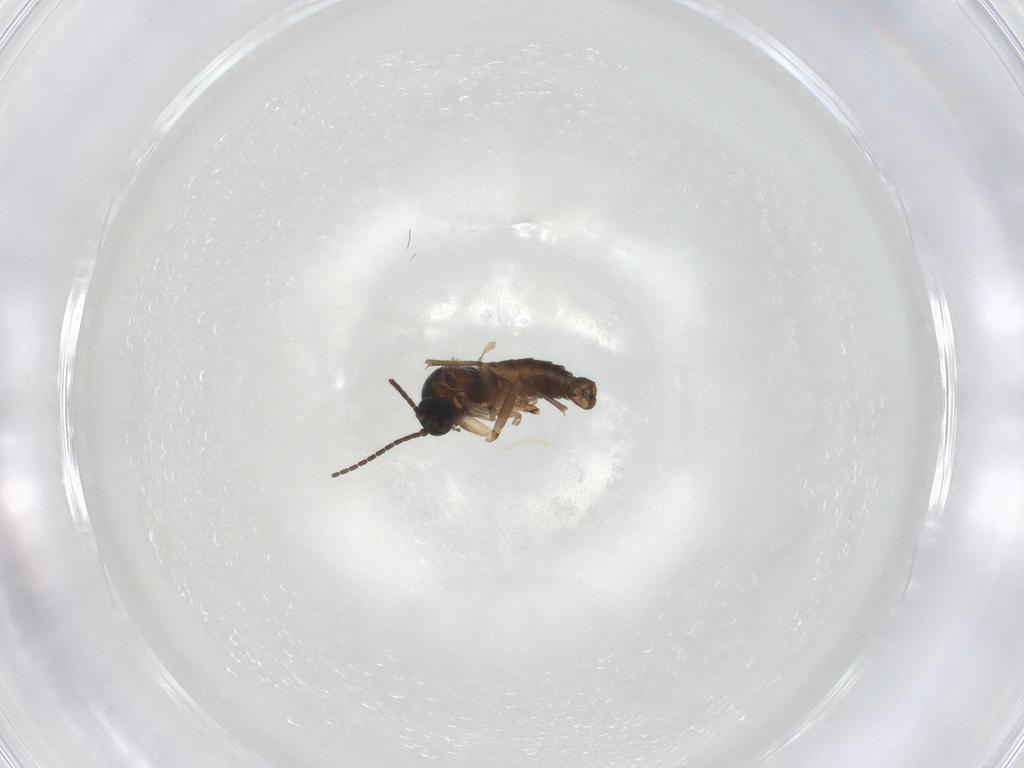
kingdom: Animalia
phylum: Arthropoda
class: Insecta
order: Diptera
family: Sciaridae
